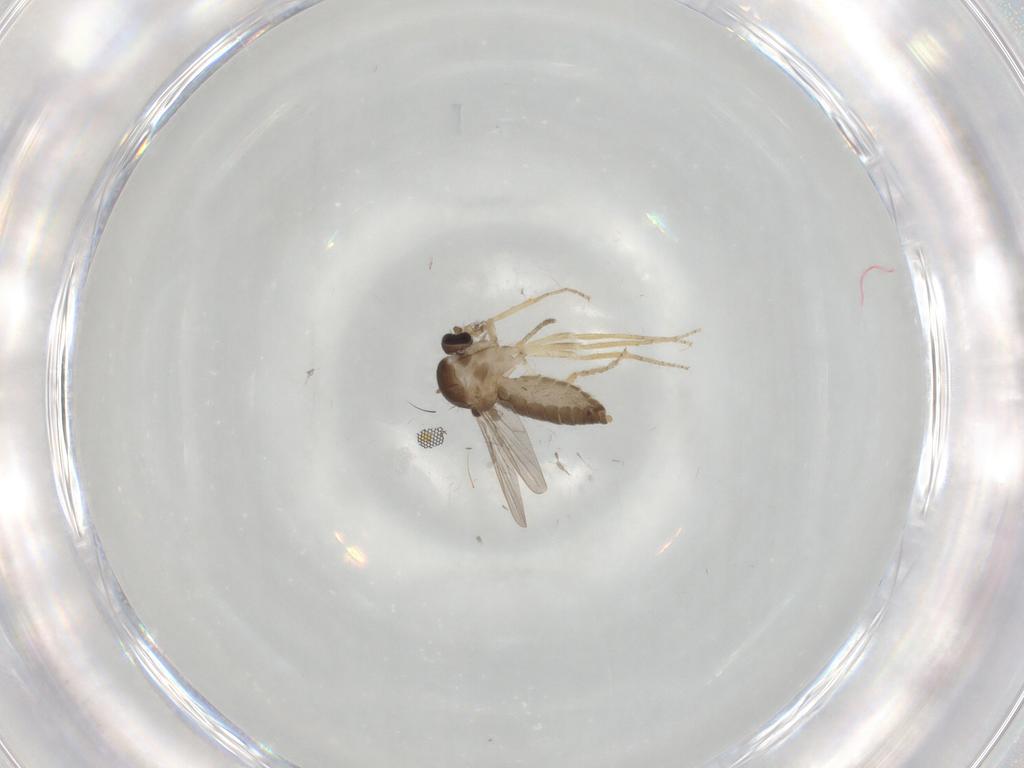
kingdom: Animalia
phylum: Arthropoda
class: Insecta
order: Diptera
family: Ceratopogonidae
